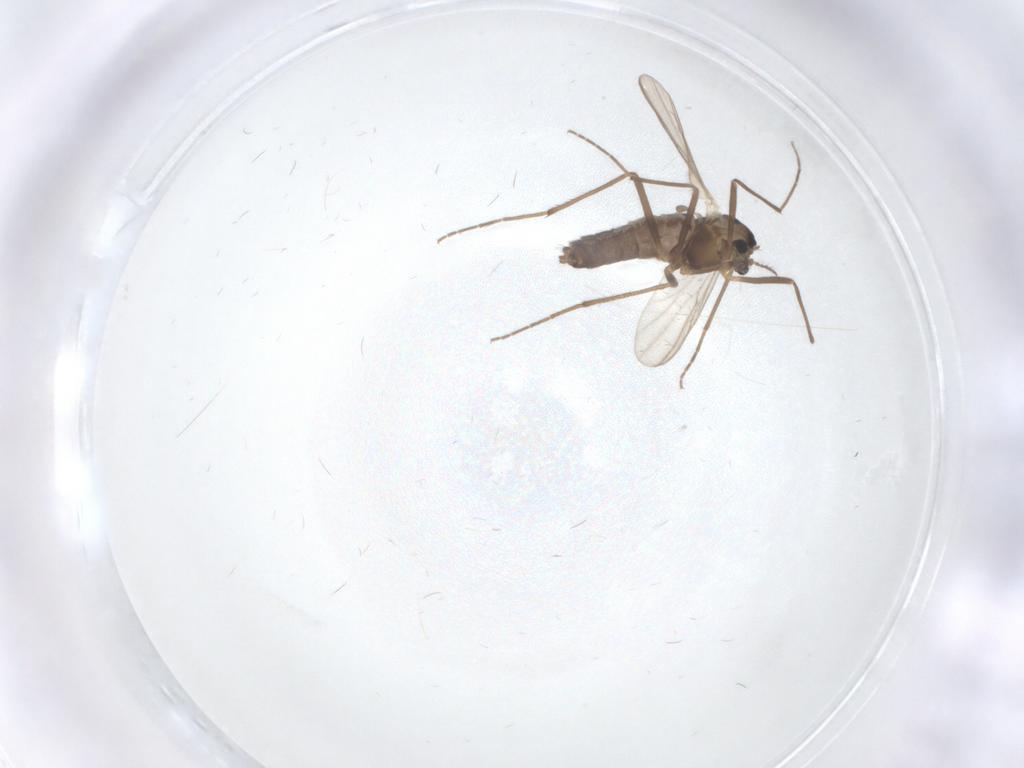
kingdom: Animalia
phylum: Arthropoda
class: Insecta
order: Diptera
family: Chironomidae
